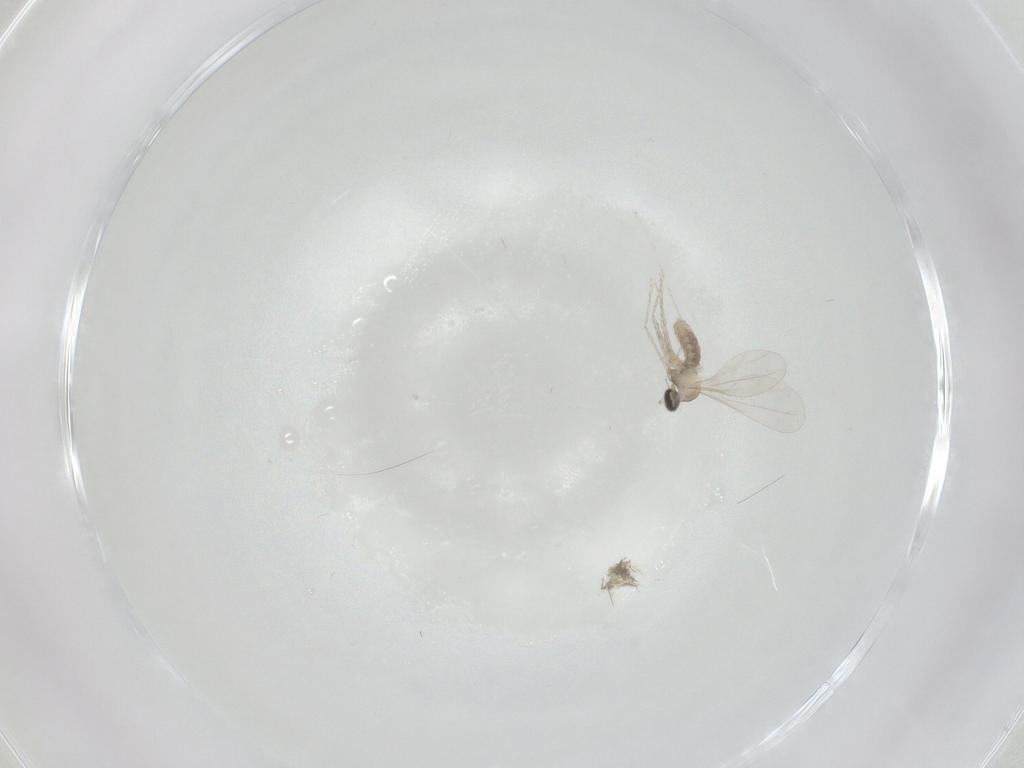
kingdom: Animalia
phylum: Arthropoda
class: Insecta
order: Diptera
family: Cecidomyiidae
